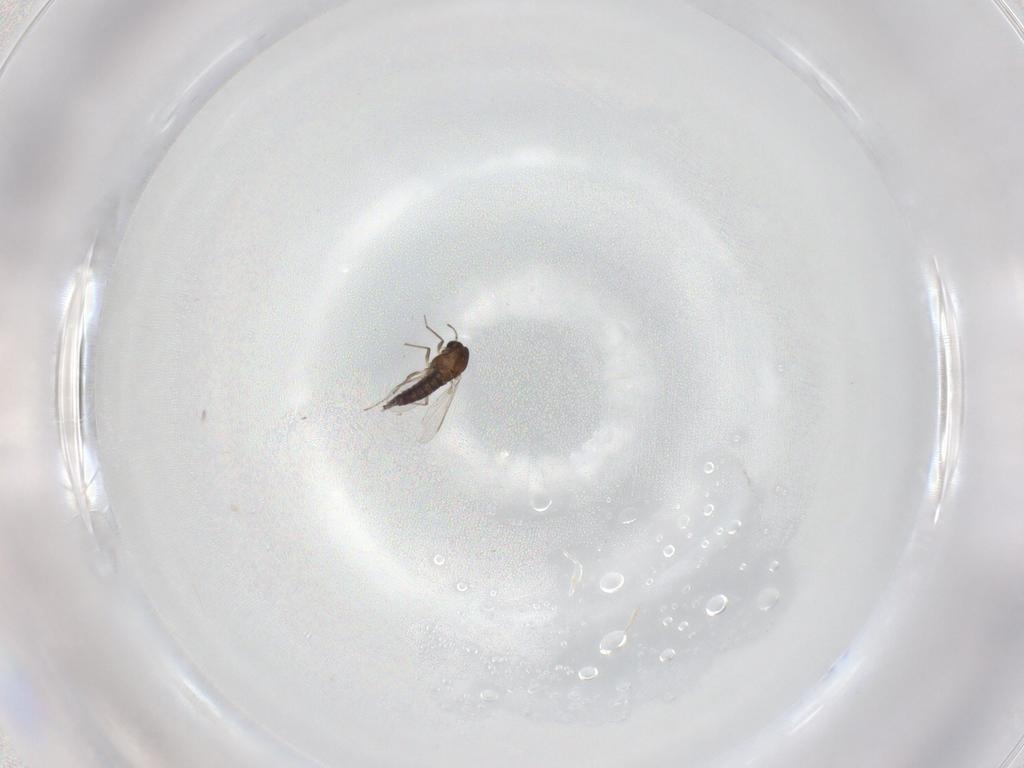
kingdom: Animalia
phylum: Arthropoda
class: Insecta
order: Diptera
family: Chironomidae
